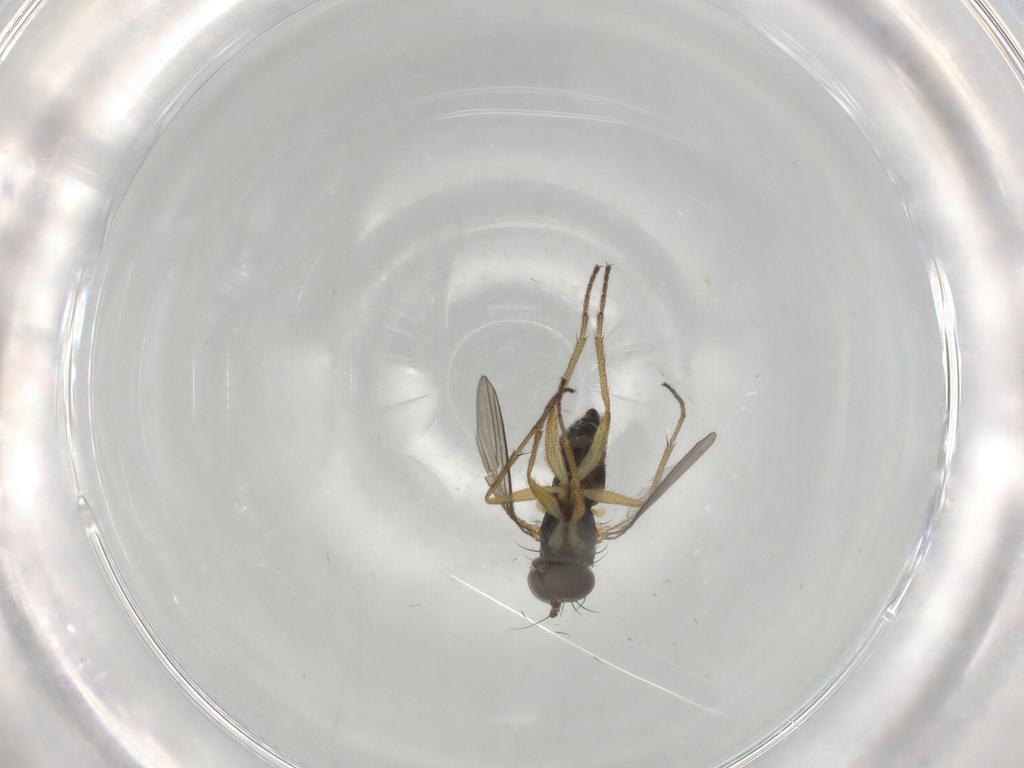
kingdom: Animalia
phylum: Arthropoda
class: Insecta
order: Diptera
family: Dolichopodidae
